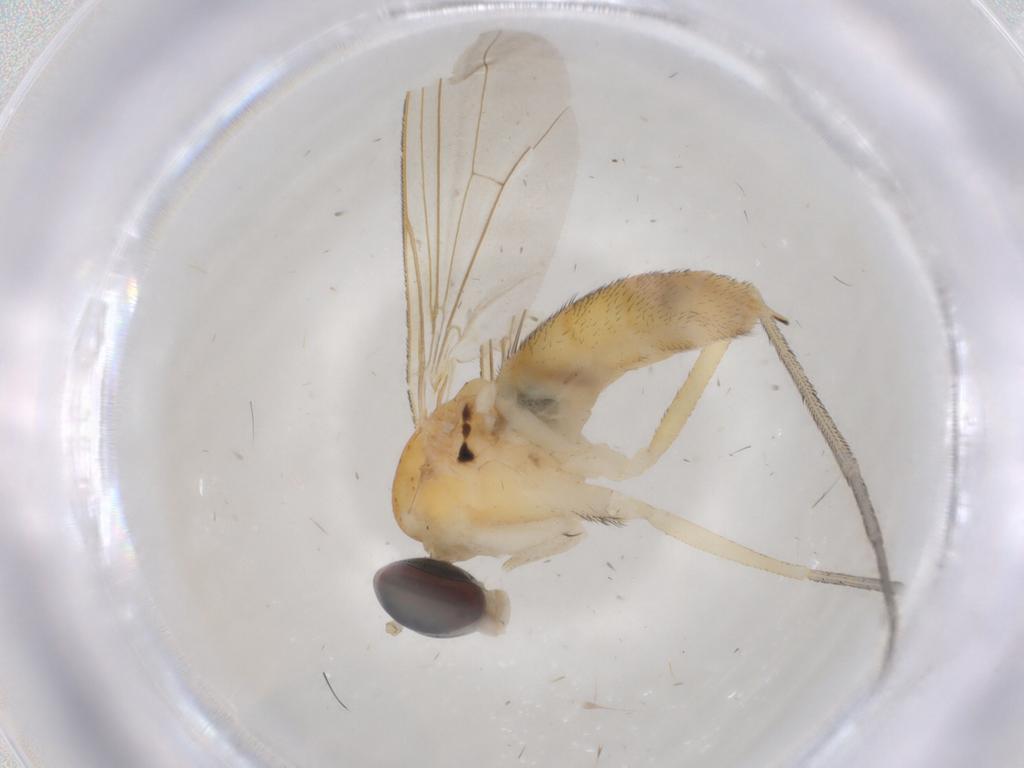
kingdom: Animalia
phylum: Arthropoda
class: Insecta
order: Diptera
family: Dolichopodidae
